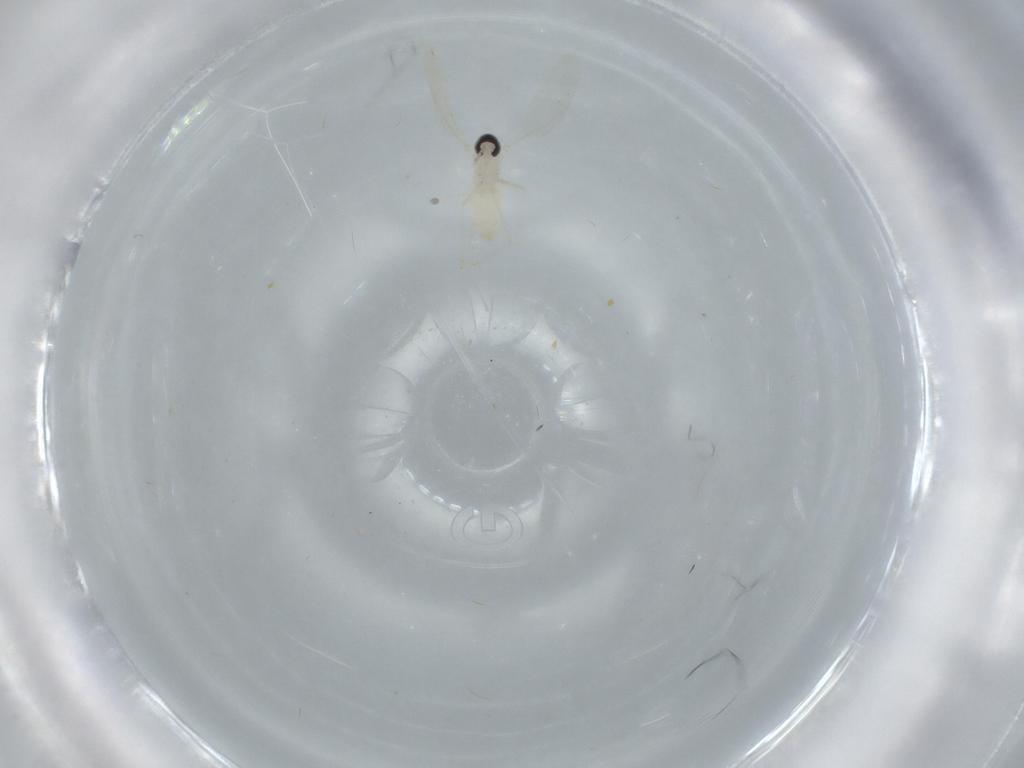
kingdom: Animalia
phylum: Arthropoda
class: Insecta
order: Diptera
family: Cecidomyiidae
